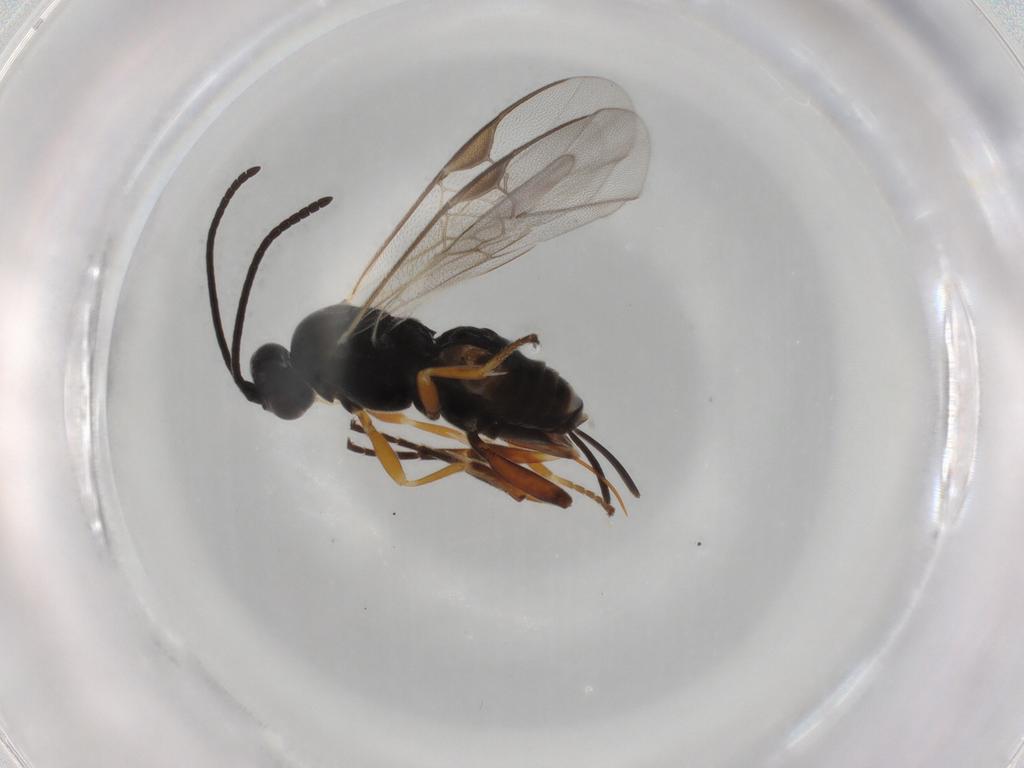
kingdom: Animalia
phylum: Arthropoda
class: Insecta
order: Hymenoptera
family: Braconidae
